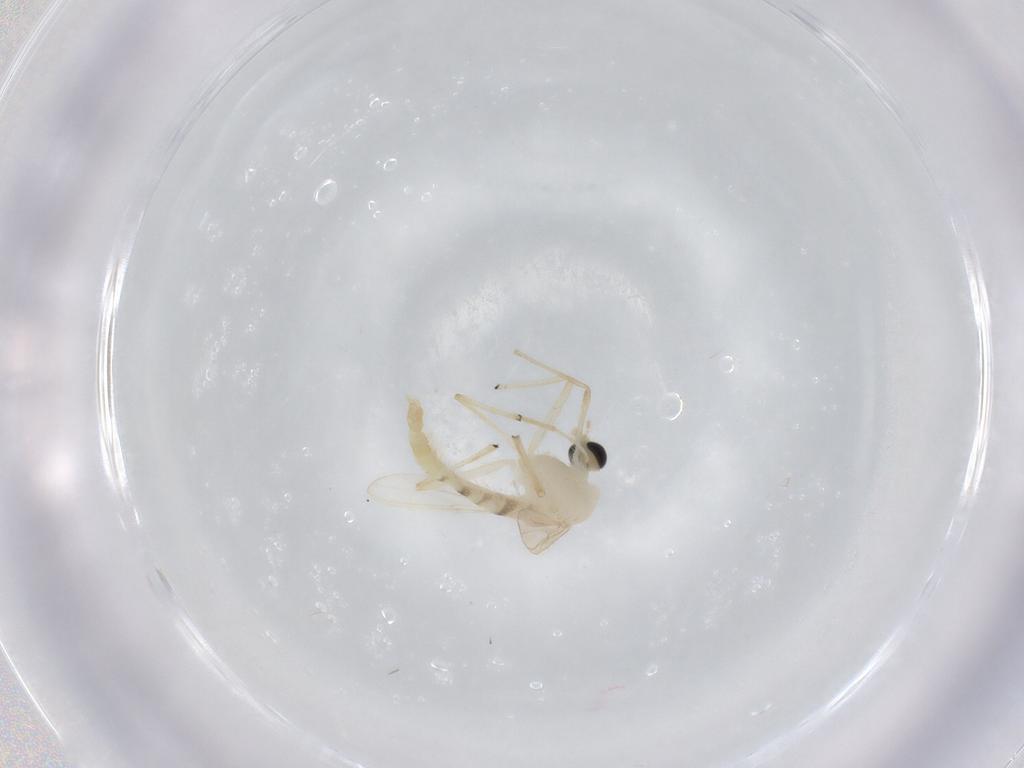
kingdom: Animalia
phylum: Arthropoda
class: Insecta
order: Diptera
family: Chironomidae
